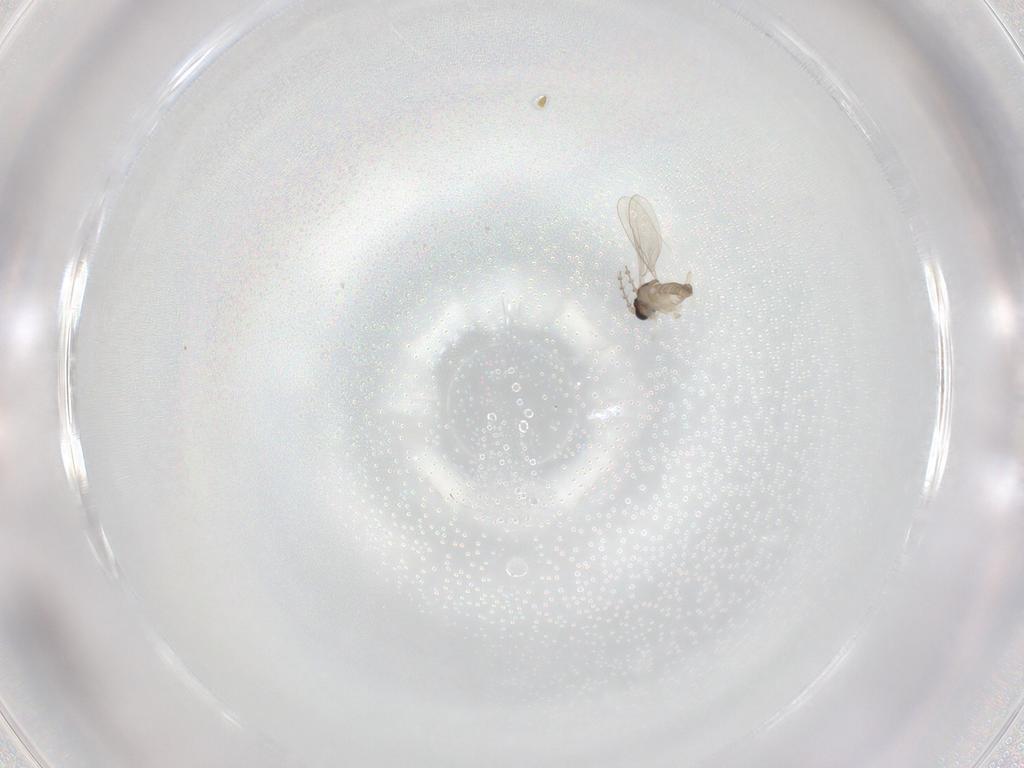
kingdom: Animalia
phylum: Arthropoda
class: Insecta
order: Diptera
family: Cecidomyiidae
